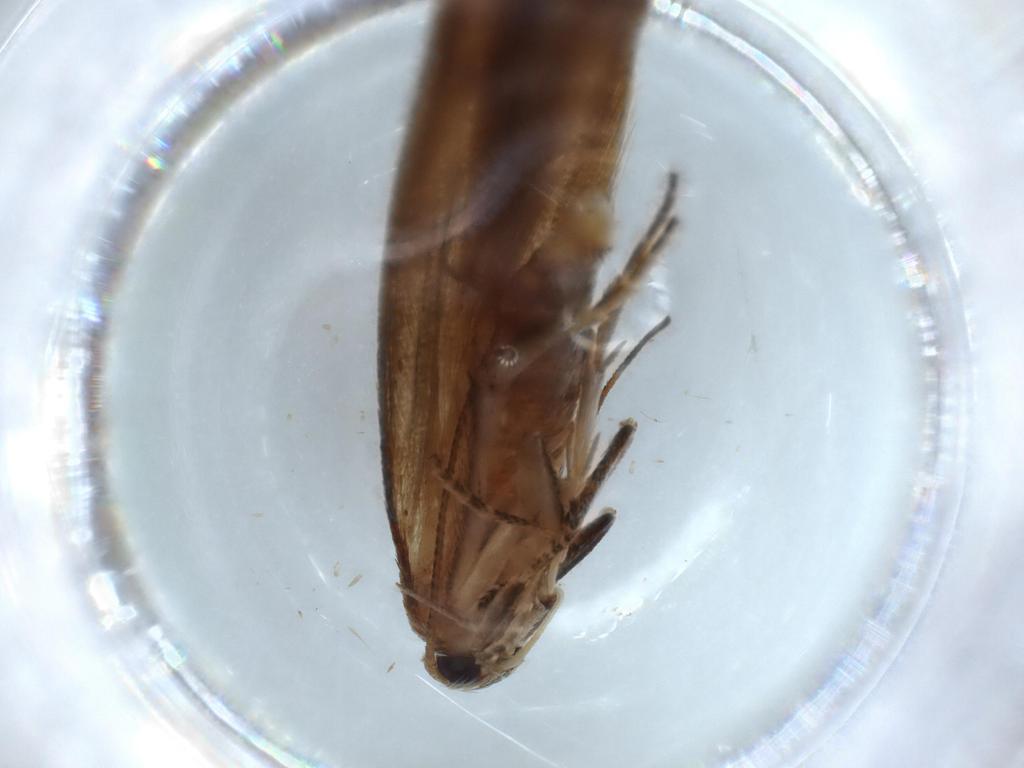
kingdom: Animalia
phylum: Arthropoda
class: Insecta
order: Lepidoptera
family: Stathmopodidae
